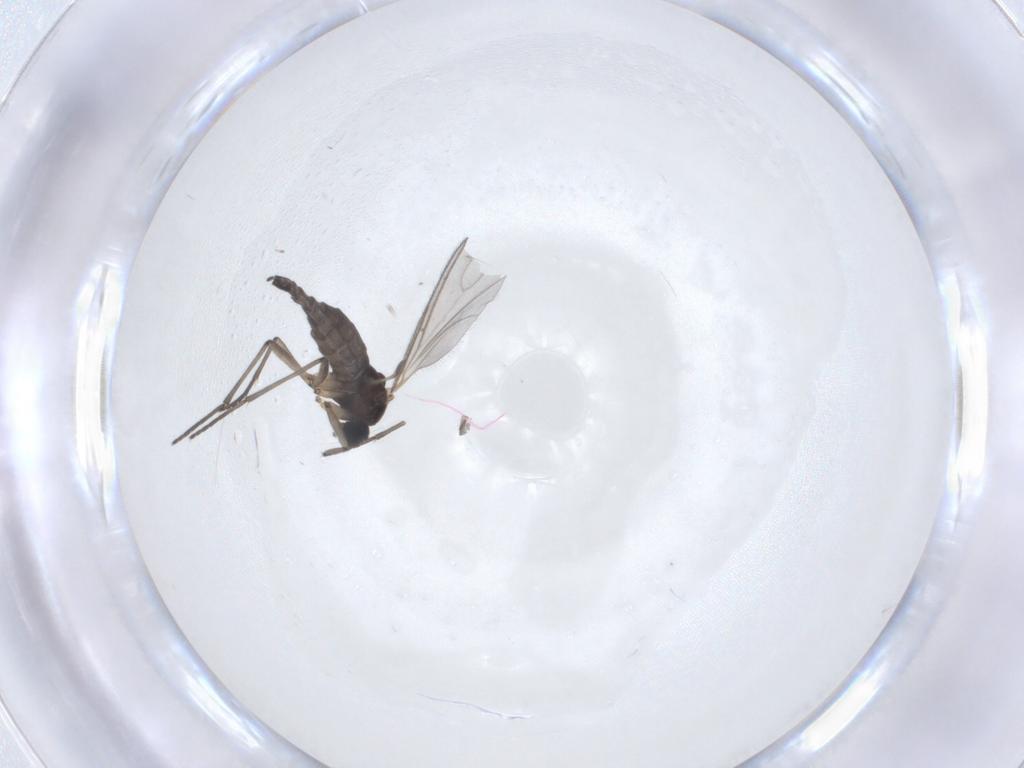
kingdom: Animalia
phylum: Arthropoda
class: Insecta
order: Diptera
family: Sciaridae
